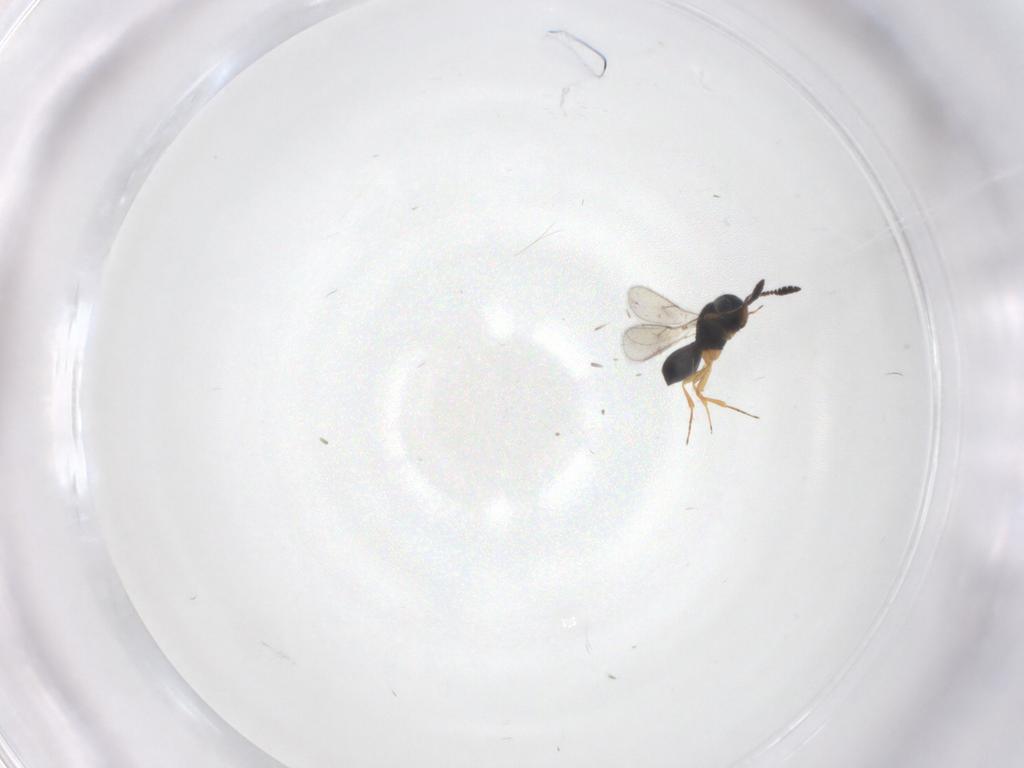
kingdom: Animalia
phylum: Arthropoda
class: Insecta
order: Hymenoptera
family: Scelionidae
